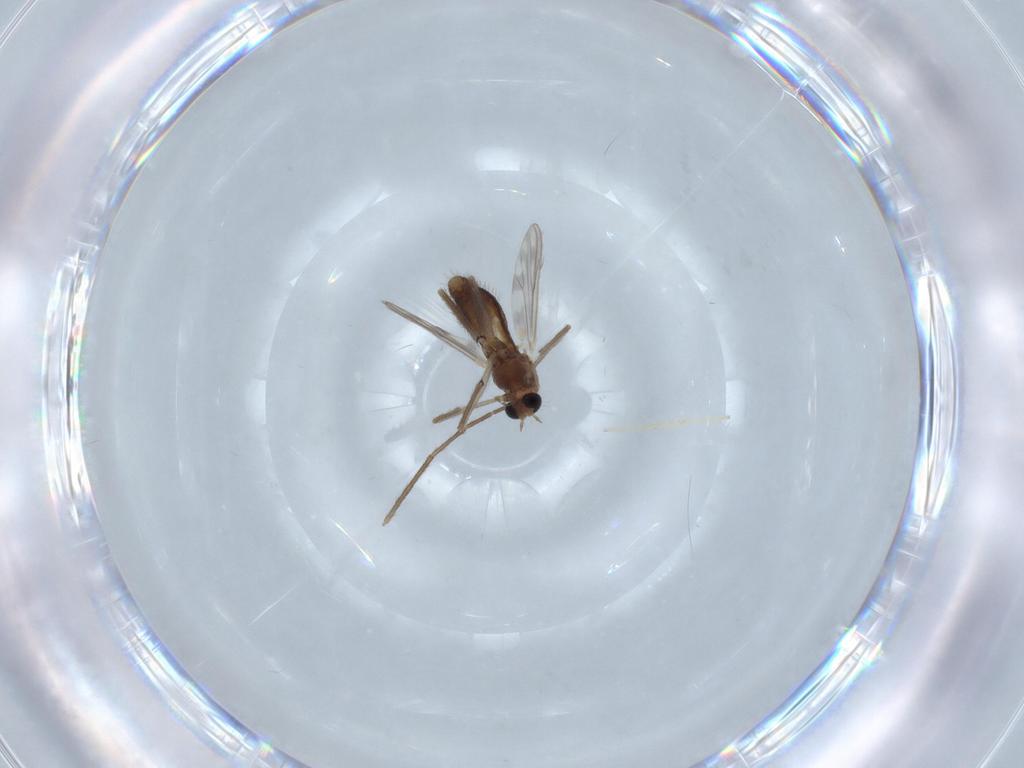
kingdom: Animalia
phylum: Arthropoda
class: Insecta
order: Diptera
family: Chironomidae
